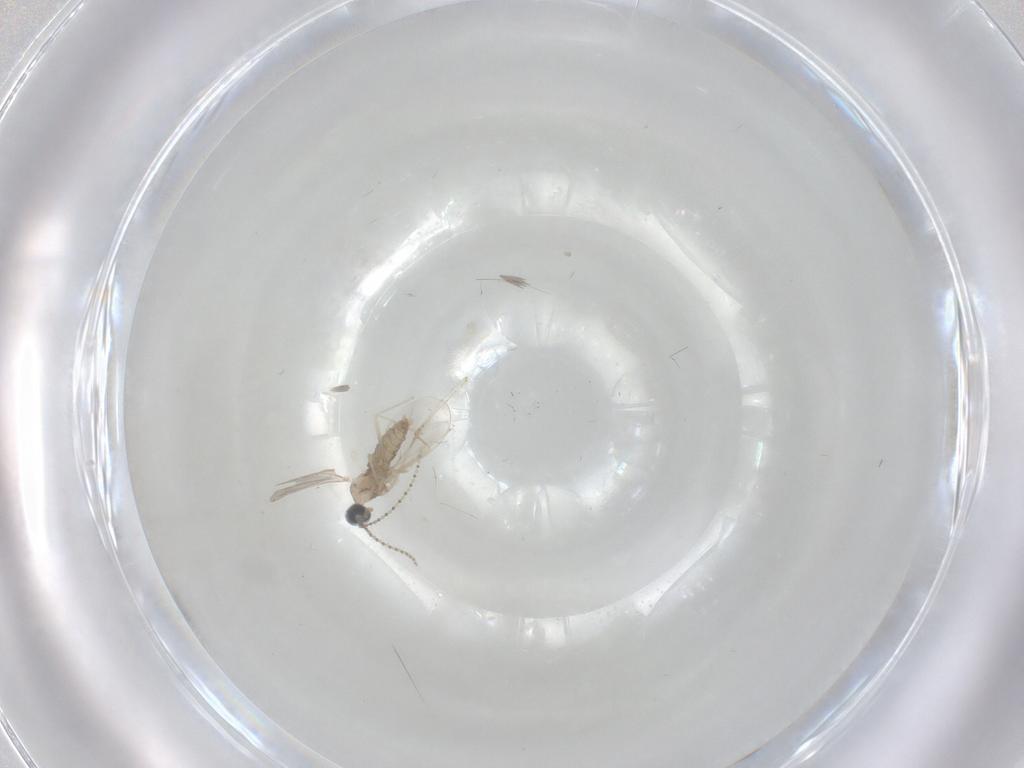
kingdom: Animalia
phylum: Arthropoda
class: Insecta
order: Diptera
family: Cecidomyiidae
